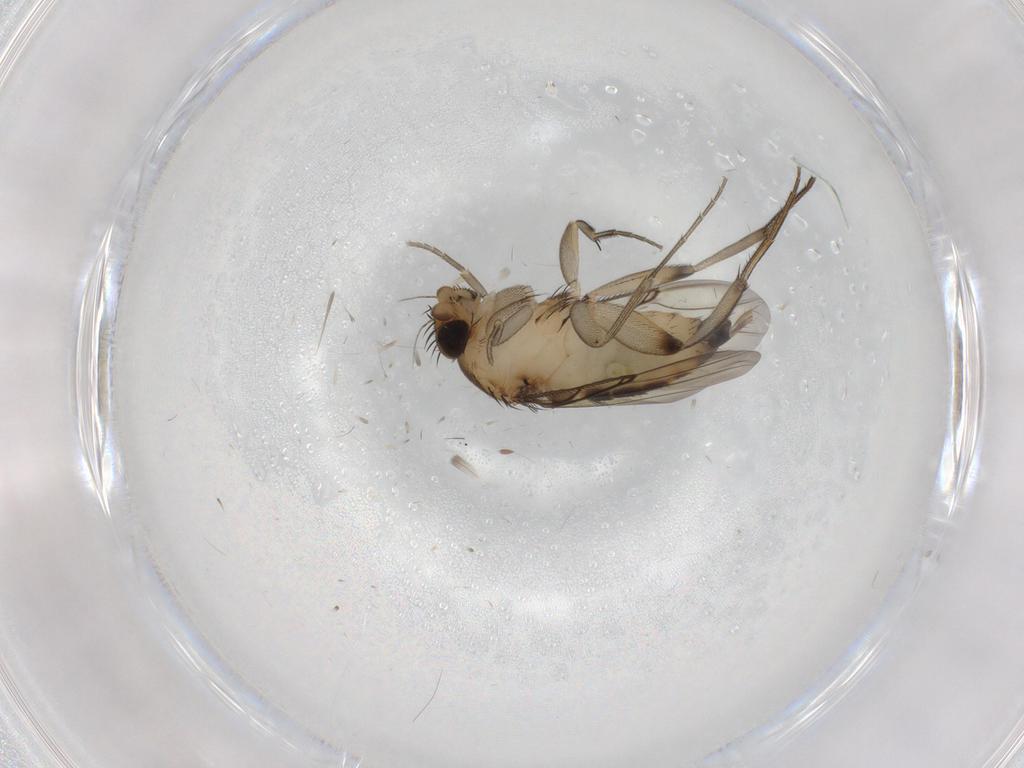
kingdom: Animalia
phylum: Arthropoda
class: Insecta
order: Diptera
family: Phoridae
